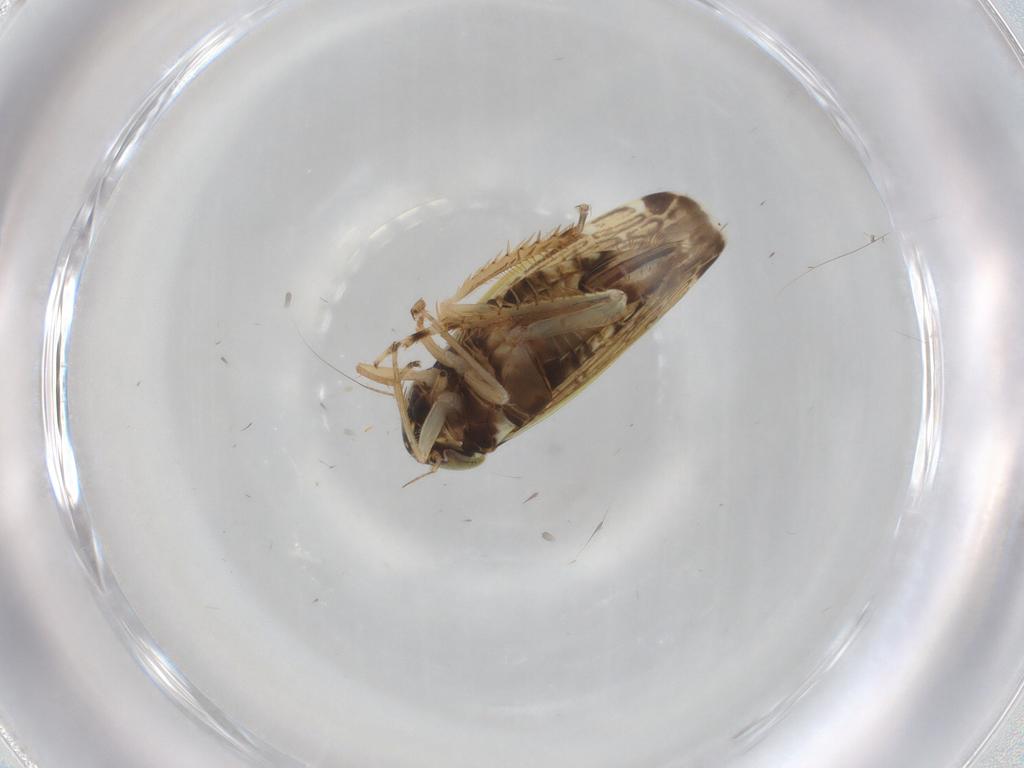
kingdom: Animalia
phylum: Arthropoda
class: Insecta
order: Hemiptera
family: Cicadellidae
